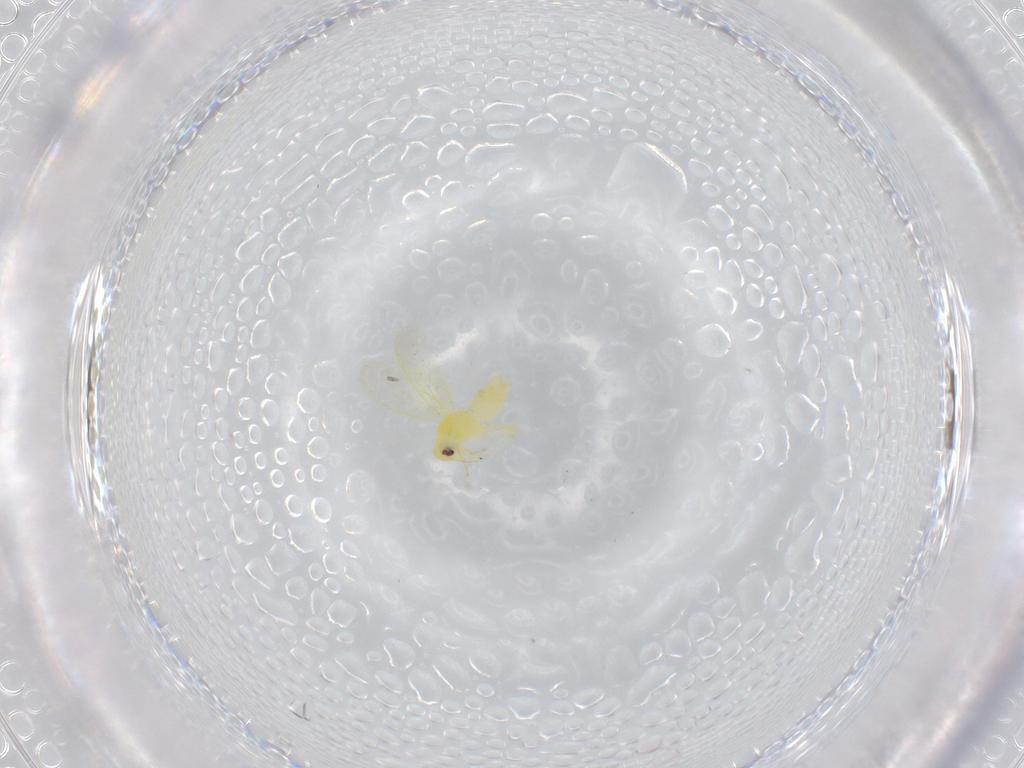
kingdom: Animalia
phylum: Arthropoda
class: Insecta
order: Hemiptera
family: Aleyrodidae
